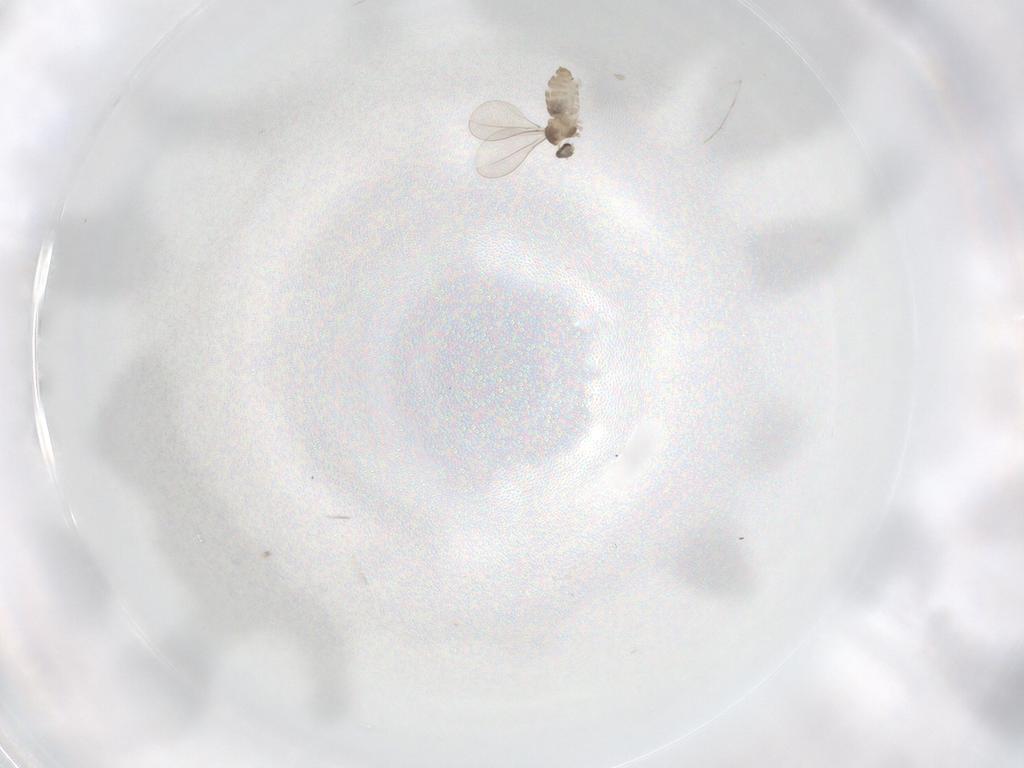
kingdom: Animalia
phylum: Arthropoda
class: Insecta
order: Diptera
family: Cecidomyiidae
